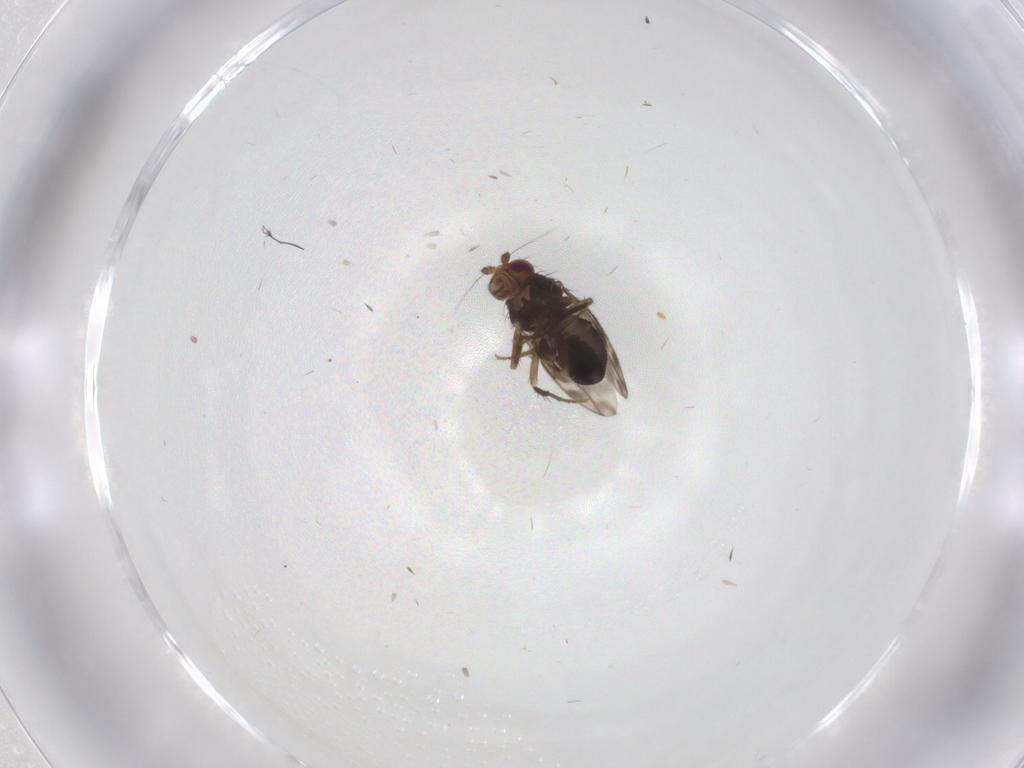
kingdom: Animalia
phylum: Arthropoda
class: Insecta
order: Diptera
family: Sphaeroceridae
